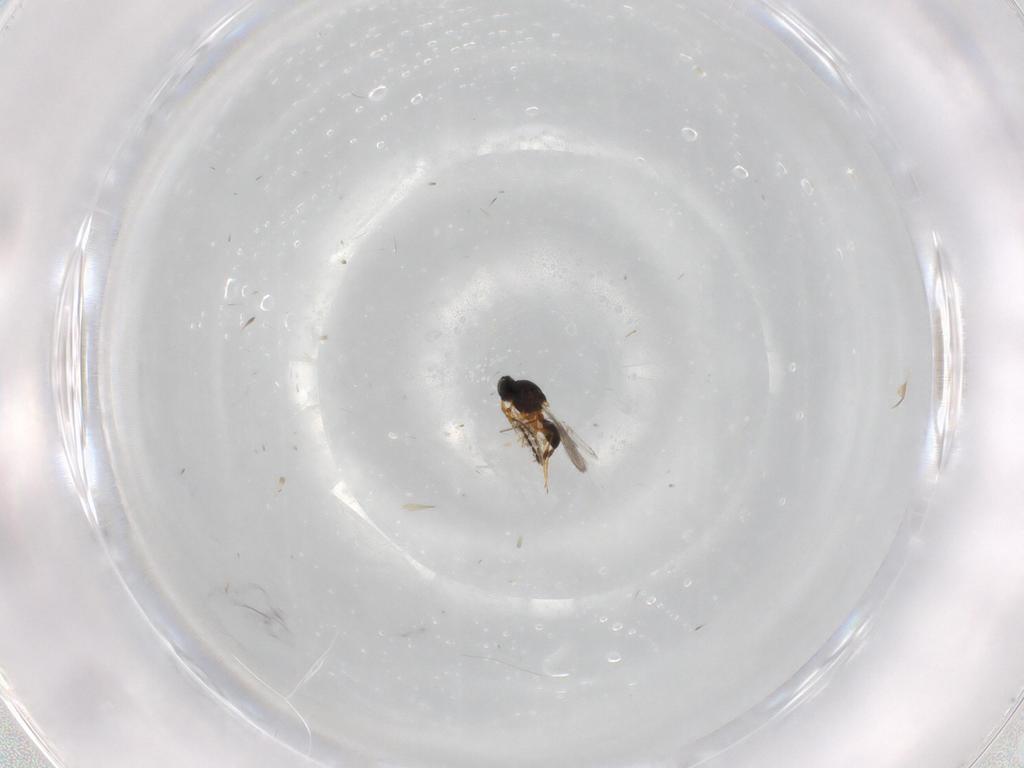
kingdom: Animalia
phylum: Arthropoda
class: Insecta
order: Hymenoptera
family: Platygastridae
